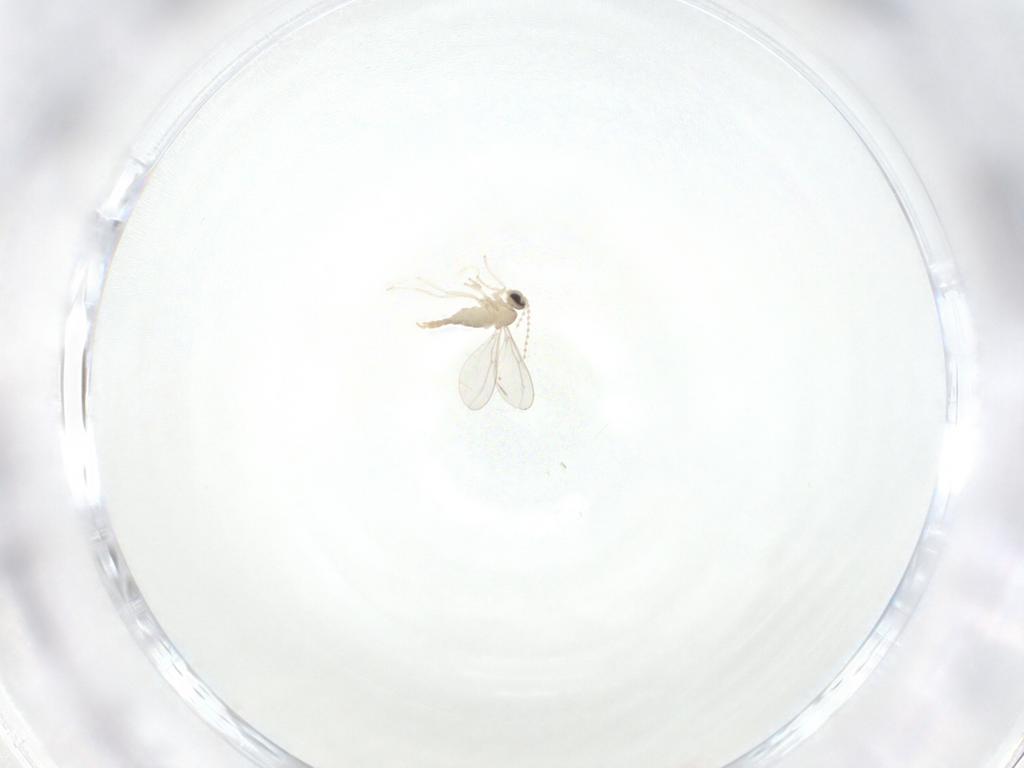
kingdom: Animalia
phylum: Arthropoda
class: Insecta
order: Diptera
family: Cecidomyiidae
